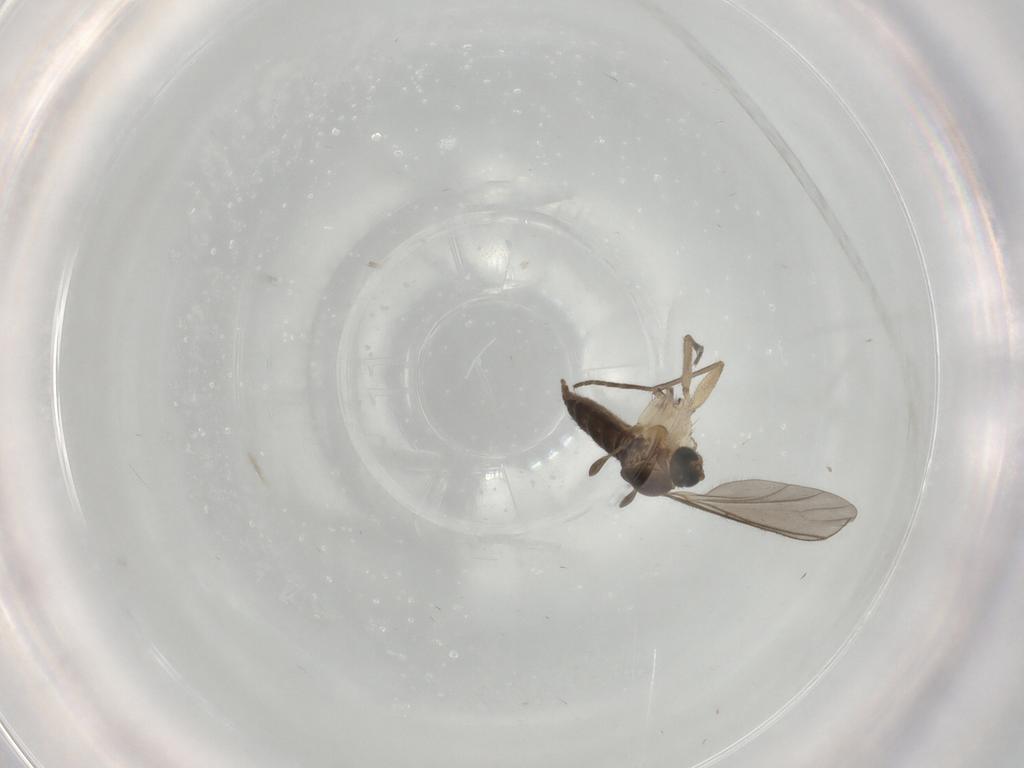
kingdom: Animalia
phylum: Arthropoda
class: Insecta
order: Diptera
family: Sciaridae
